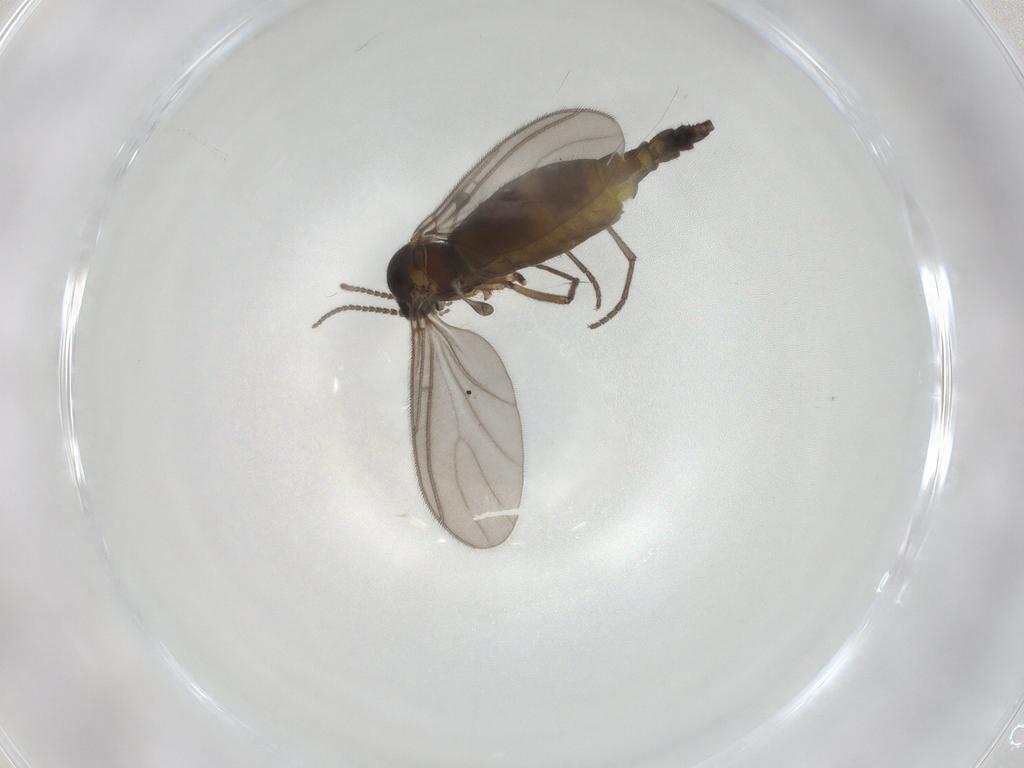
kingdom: Animalia
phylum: Arthropoda
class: Insecta
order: Diptera
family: Sciaridae
